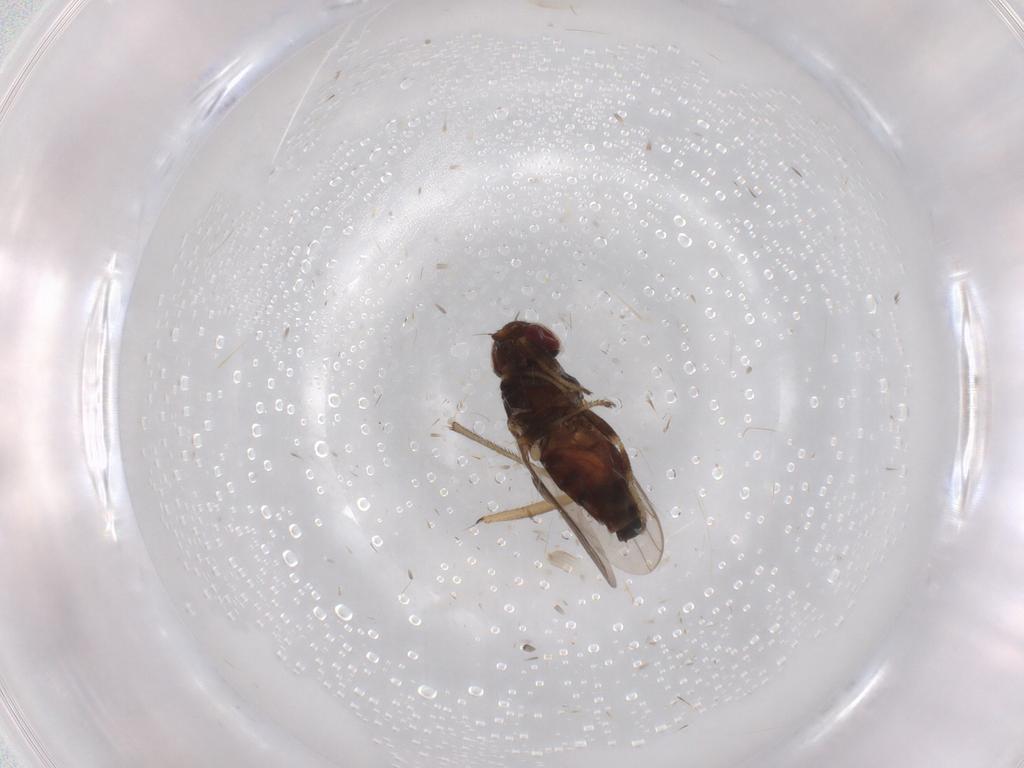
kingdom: Animalia
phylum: Arthropoda
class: Insecta
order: Diptera
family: Chloropidae
